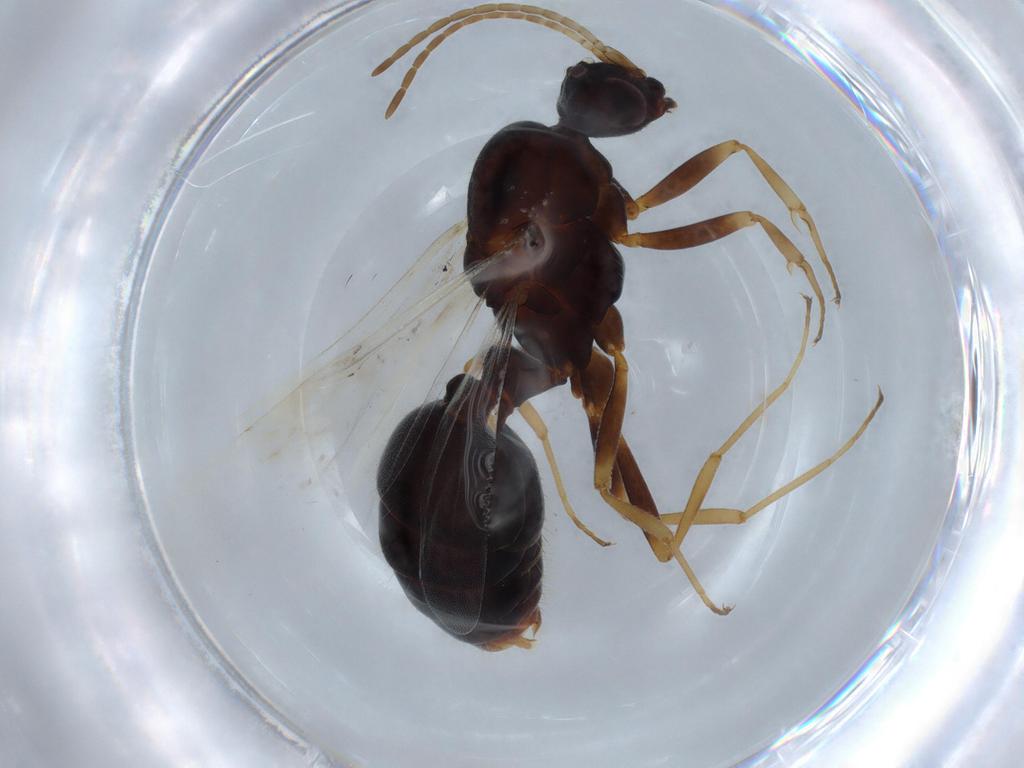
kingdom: Animalia
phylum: Arthropoda
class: Insecta
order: Hymenoptera
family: Formicidae
